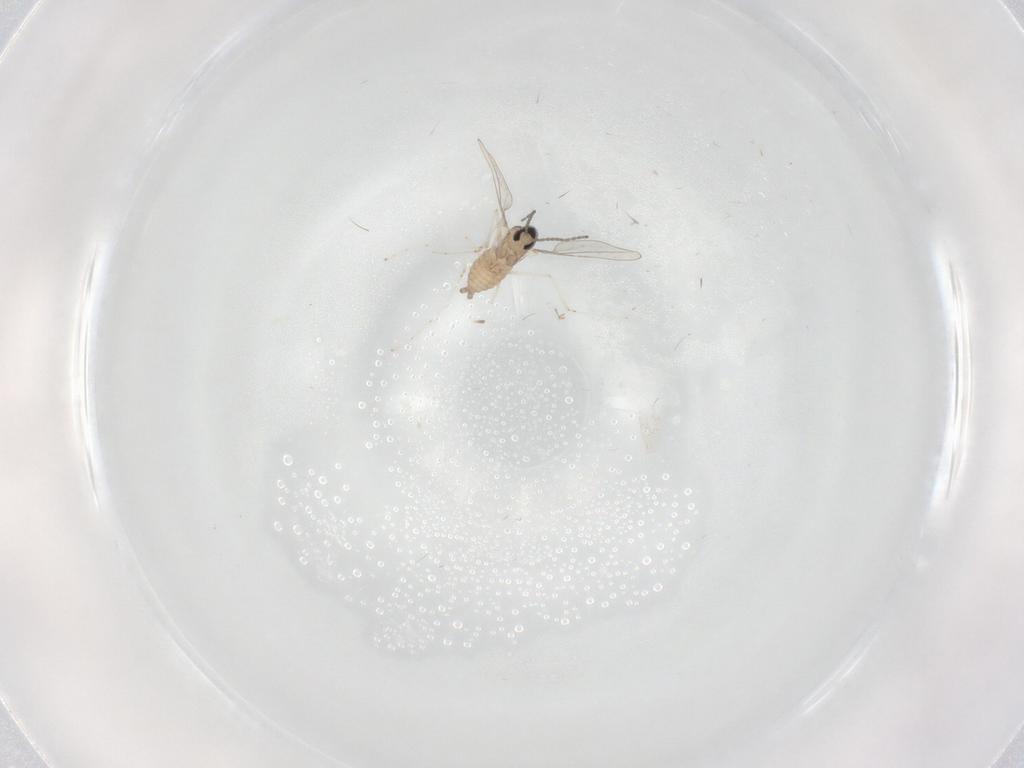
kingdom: Animalia
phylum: Arthropoda
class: Insecta
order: Diptera
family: Cecidomyiidae
